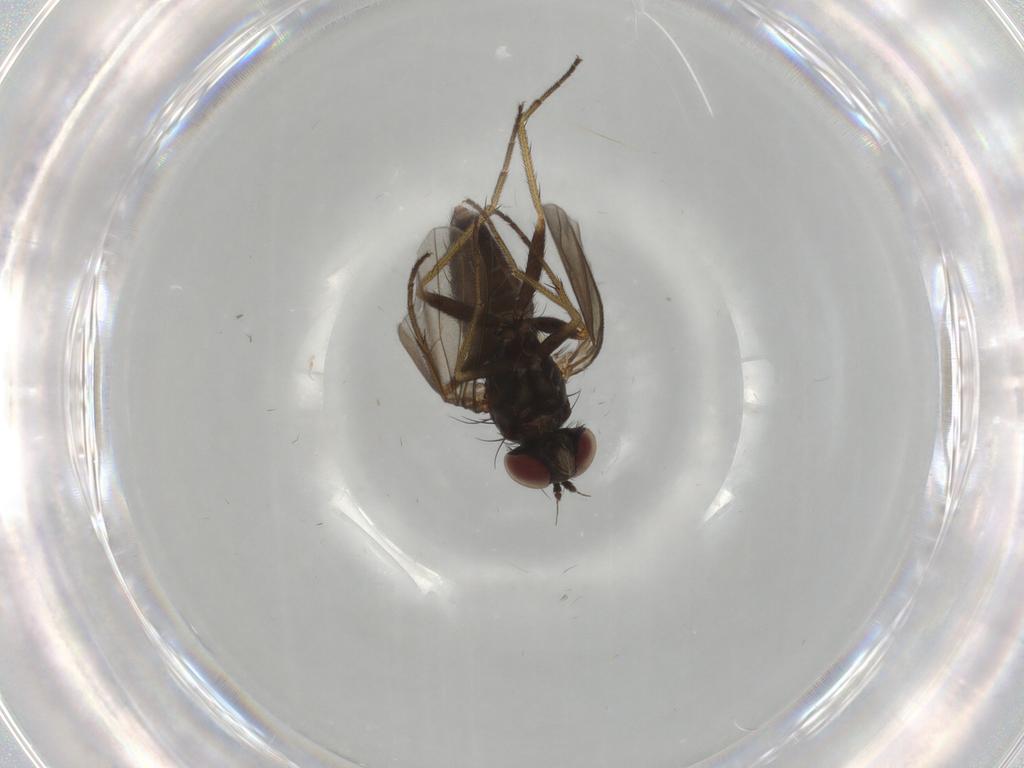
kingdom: Animalia
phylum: Arthropoda
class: Insecta
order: Diptera
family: Dolichopodidae
